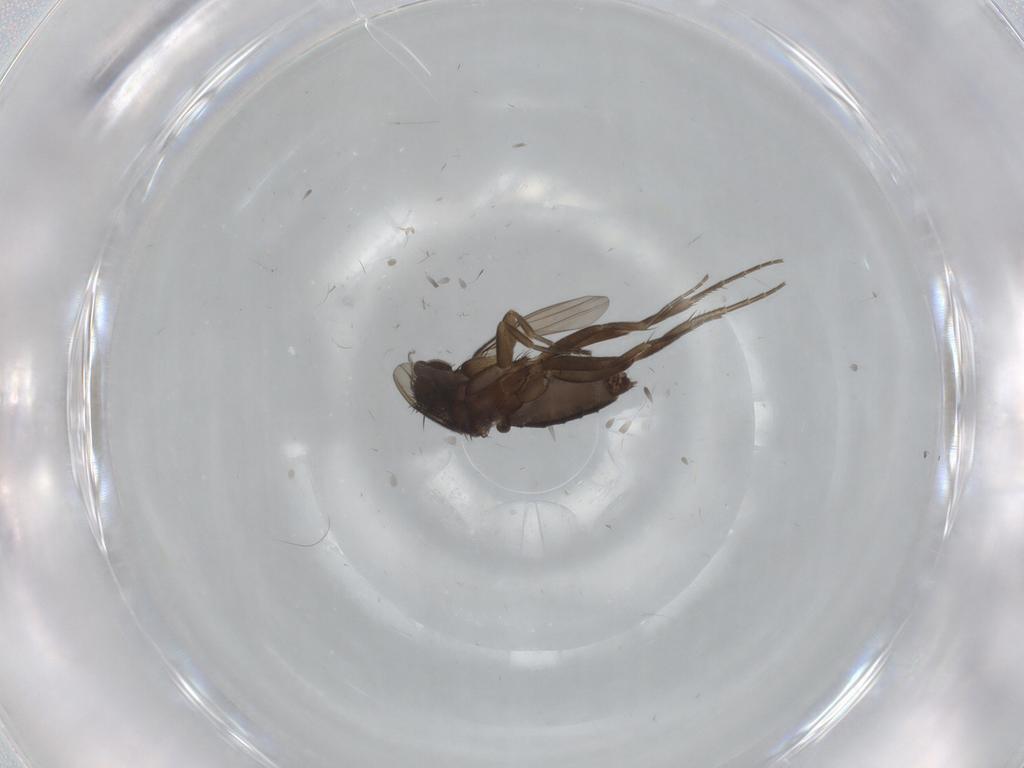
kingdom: Animalia
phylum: Arthropoda
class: Insecta
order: Diptera
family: Phoridae
